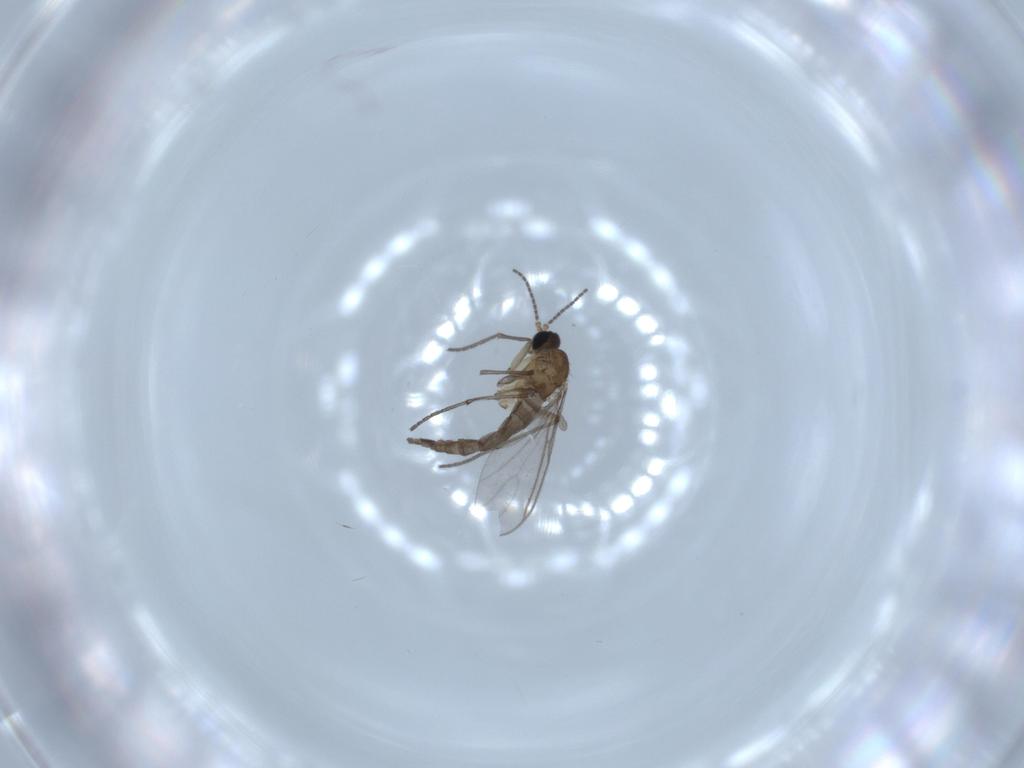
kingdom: Animalia
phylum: Arthropoda
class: Insecta
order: Diptera
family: Sciaridae
